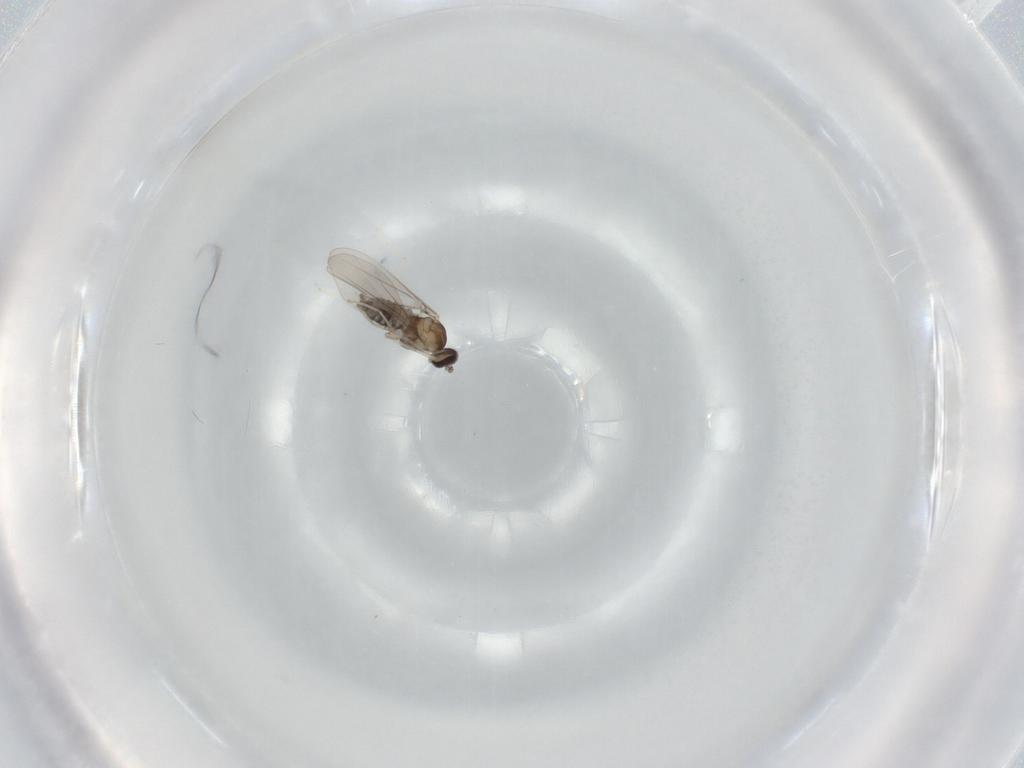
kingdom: Animalia
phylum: Arthropoda
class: Insecta
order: Diptera
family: Cecidomyiidae
